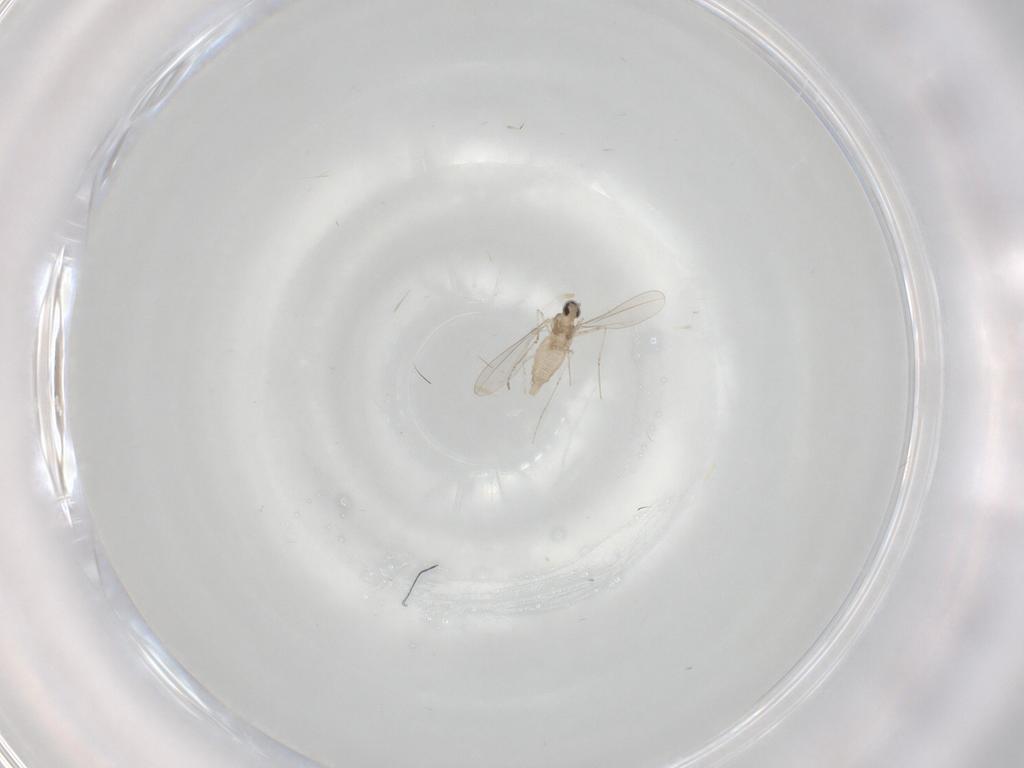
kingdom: Animalia
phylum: Arthropoda
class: Insecta
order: Diptera
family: Cecidomyiidae
